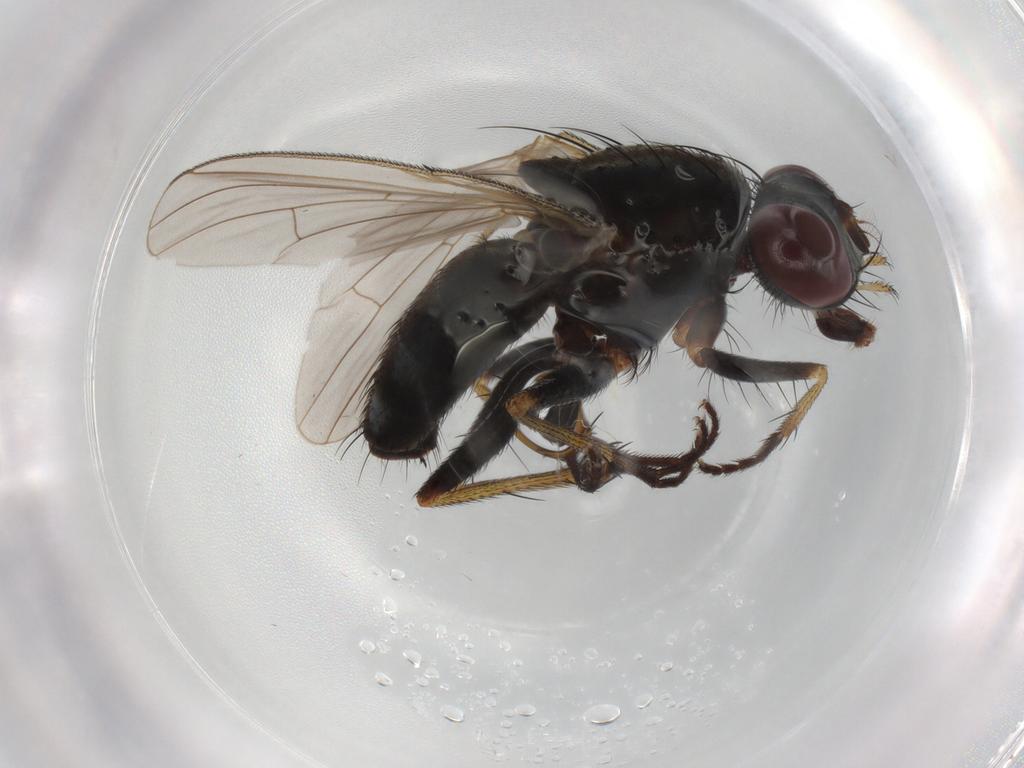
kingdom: Animalia
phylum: Arthropoda
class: Insecta
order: Diptera
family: Muscidae
